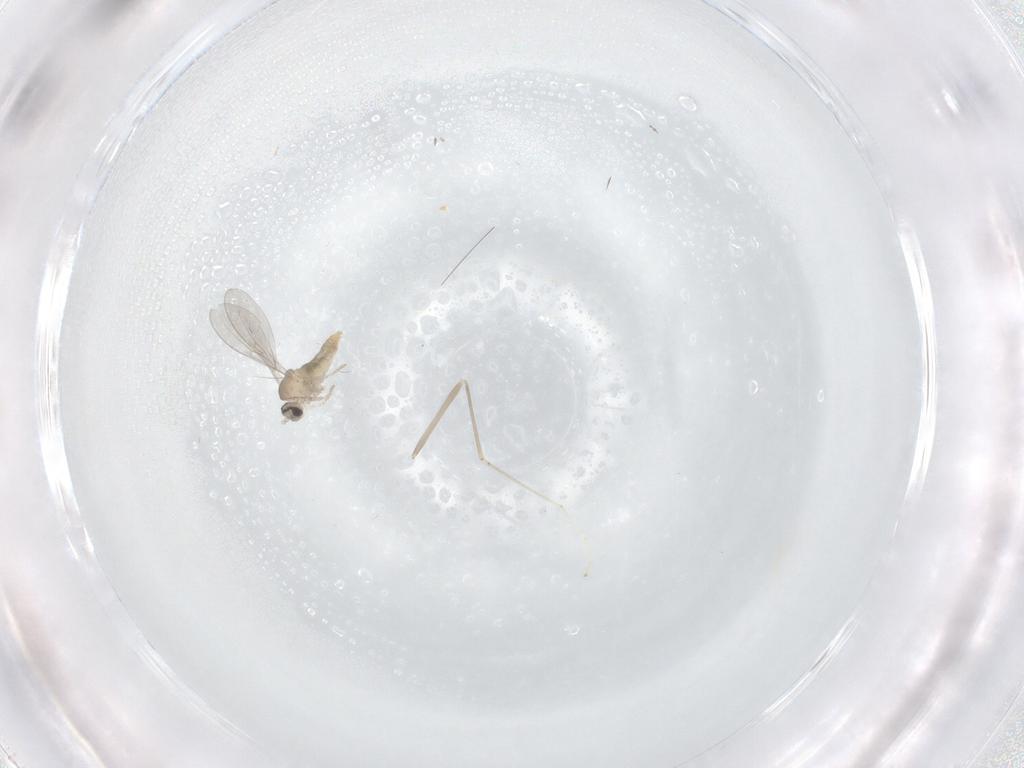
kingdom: Animalia
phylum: Arthropoda
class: Insecta
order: Diptera
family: Cecidomyiidae
